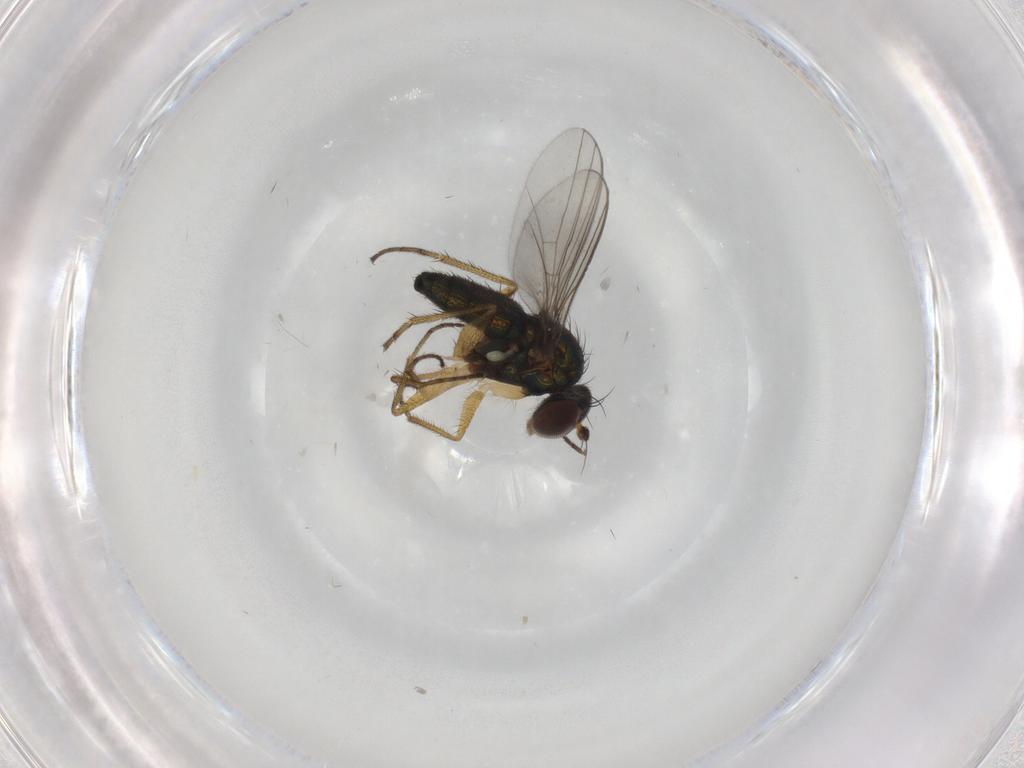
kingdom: Animalia
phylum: Arthropoda
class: Insecta
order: Diptera
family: Dolichopodidae
